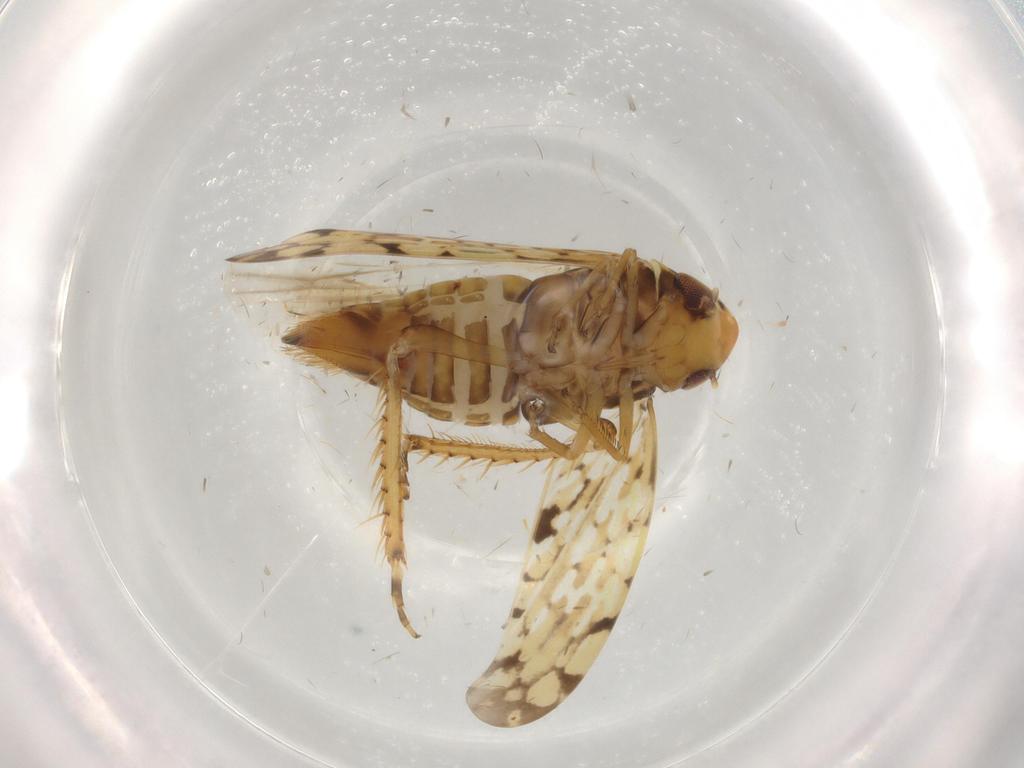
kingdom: Animalia
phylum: Arthropoda
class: Insecta
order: Hemiptera
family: Cicadellidae
